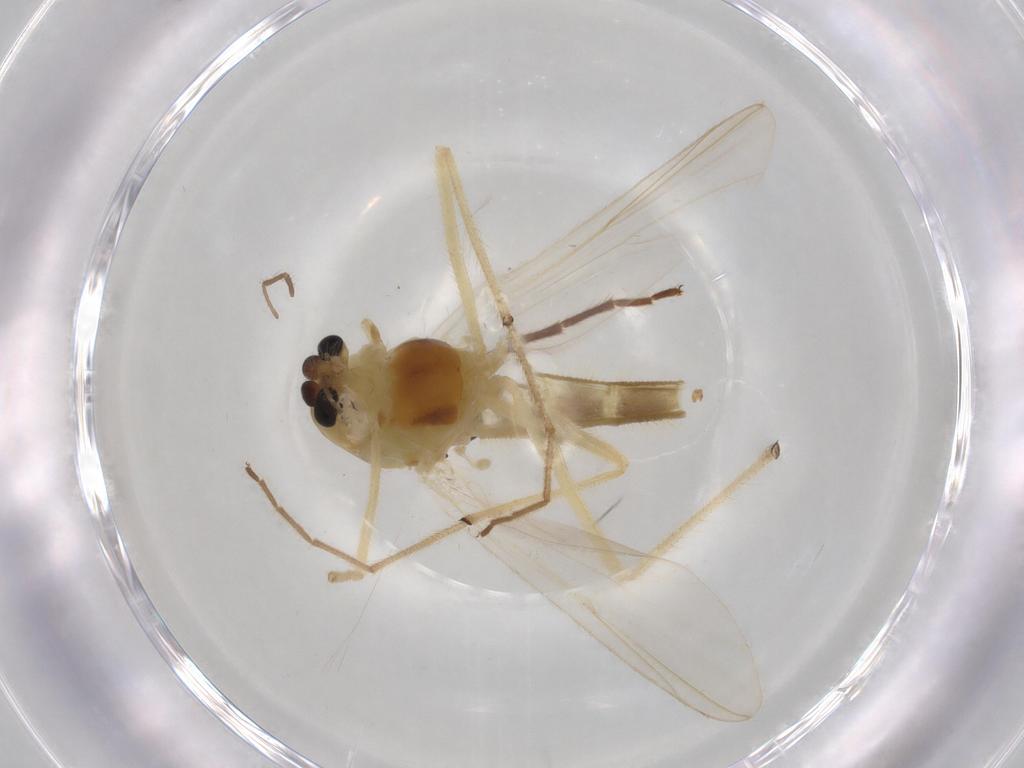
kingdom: Animalia
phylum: Arthropoda
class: Insecta
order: Diptera
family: Chironomidae
